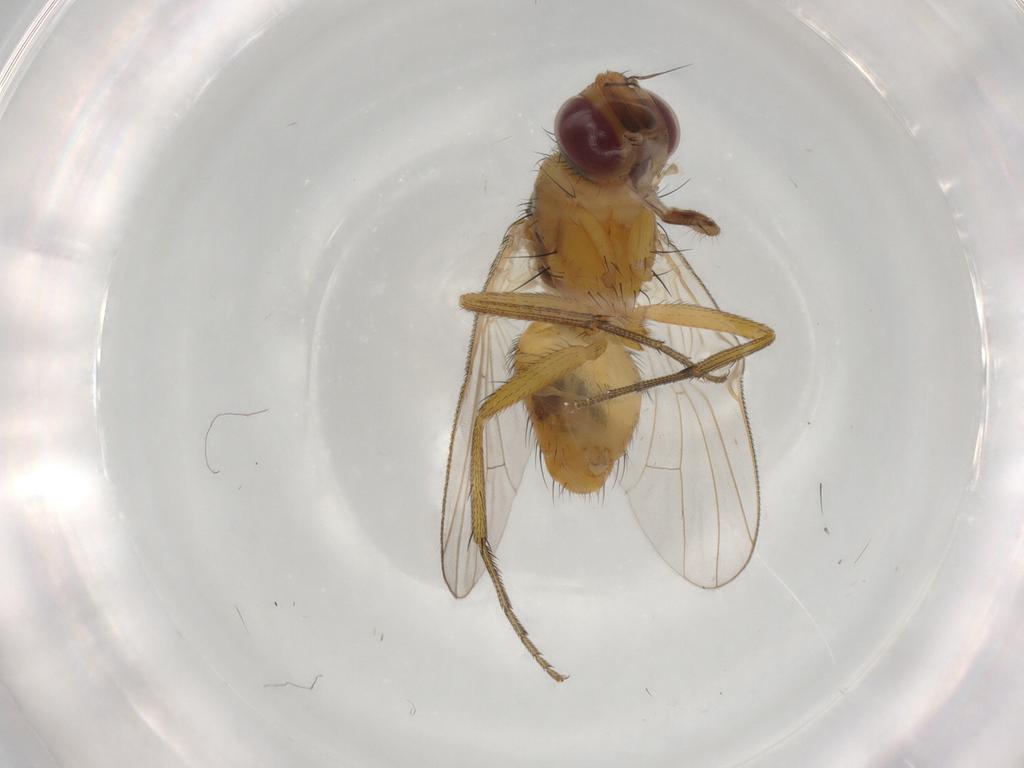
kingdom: Animalia
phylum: Arthropoda
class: Insecta
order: Diptera
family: Muscidae
